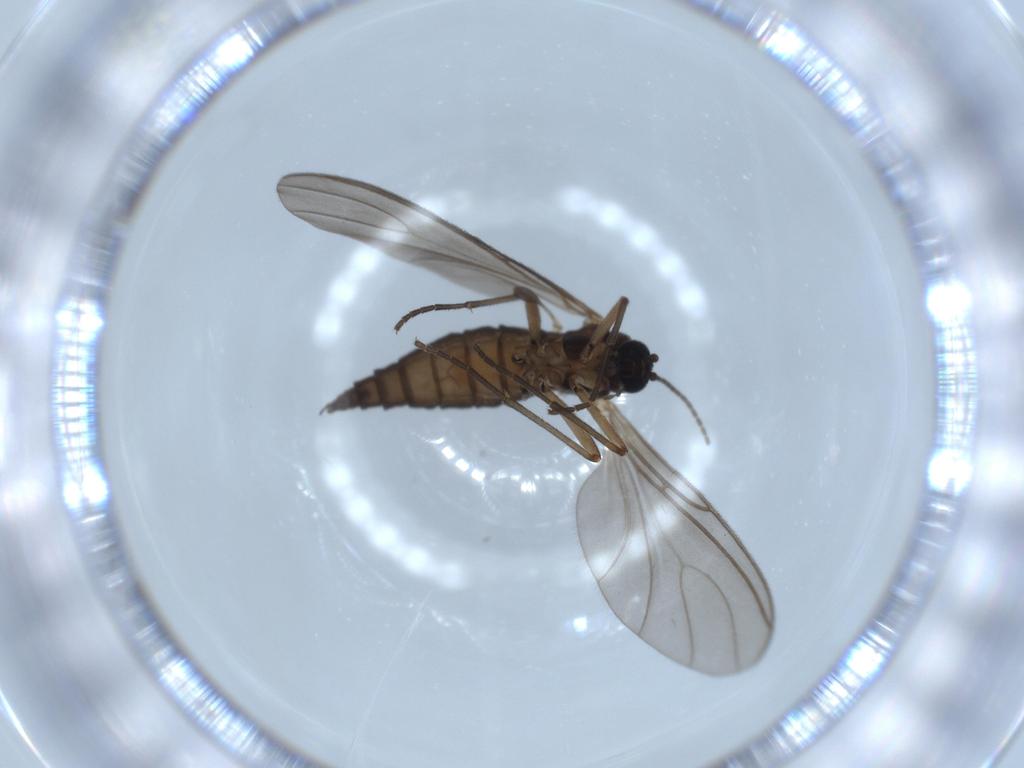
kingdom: Animalia
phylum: Arthropoda
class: Insecta
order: Diptera
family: Sciaridae
